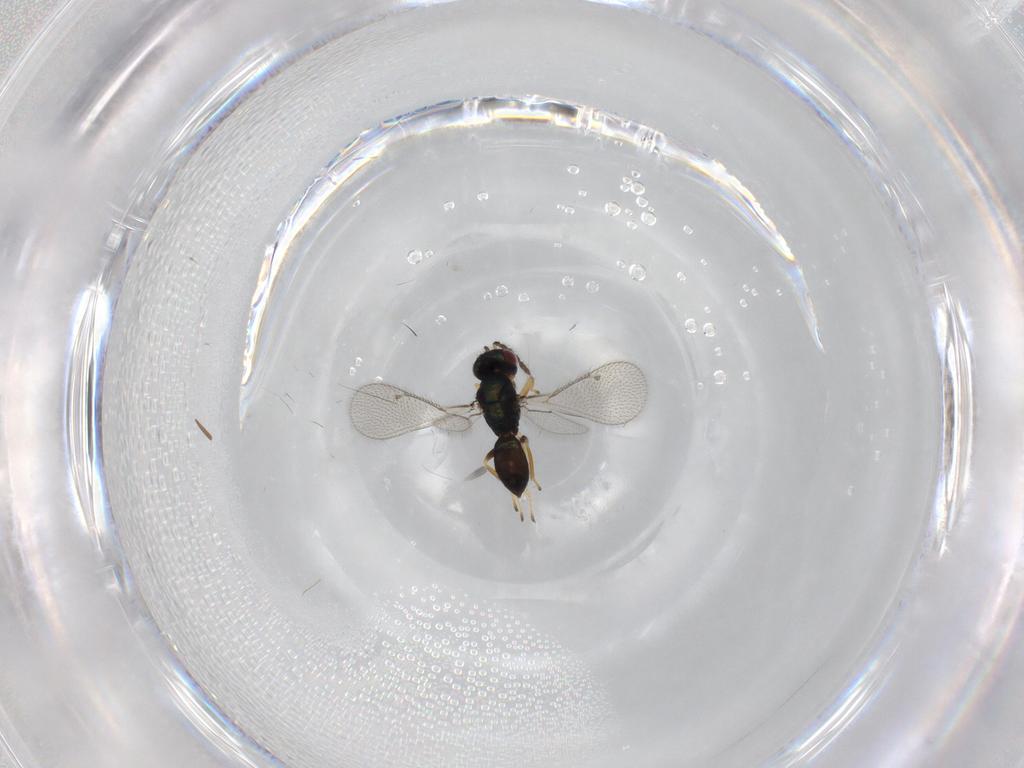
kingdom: Animalia
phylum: Arthropoda
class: Insecta
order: Hymenoptera
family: Eulophidae
